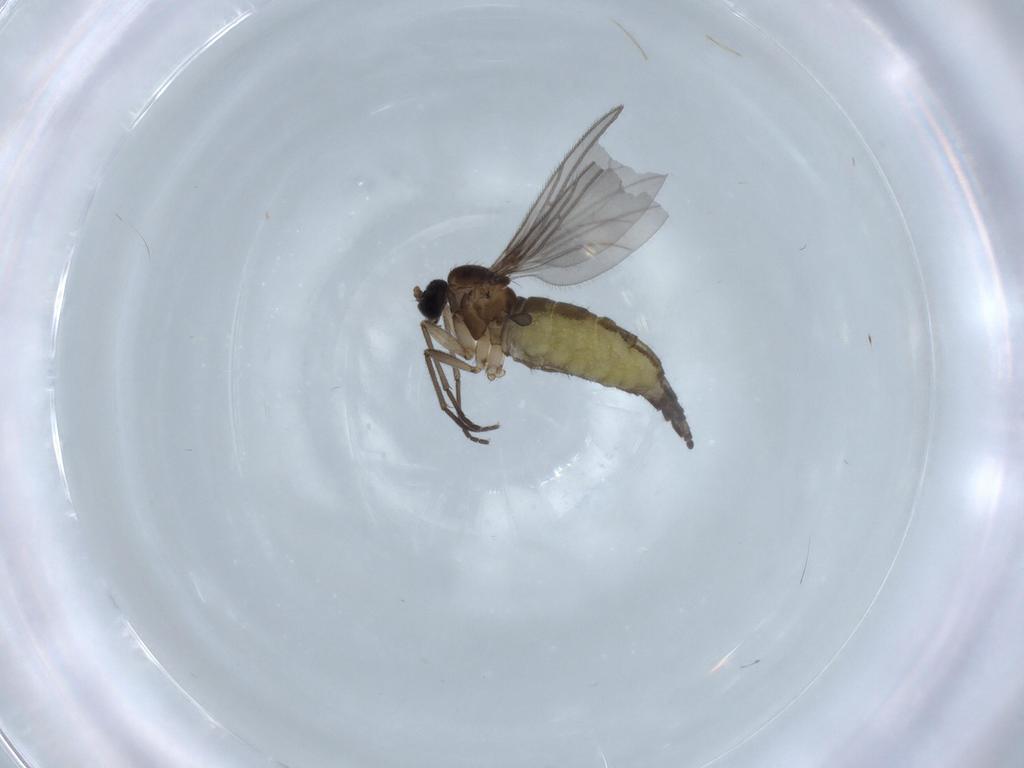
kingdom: Animalia
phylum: Arthropoda
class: Insecta
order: Diptera
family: Sciaridae
